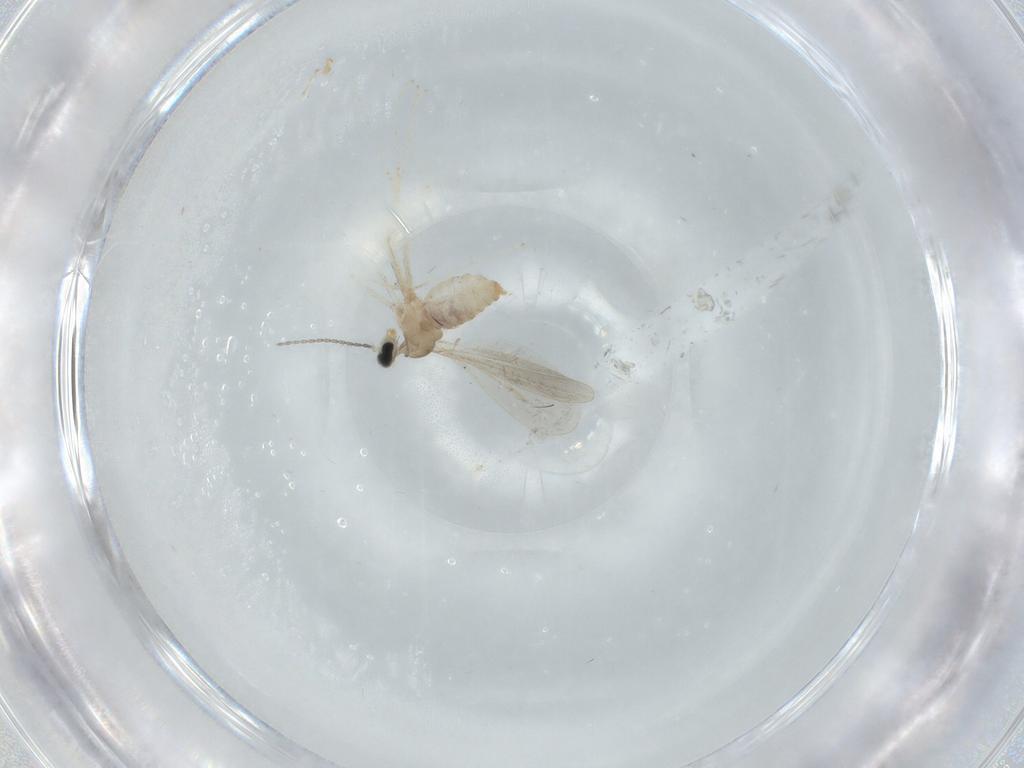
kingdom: Animalia
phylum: Arthropoda
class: Insecta
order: Diptera
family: Cecidomyiidae
